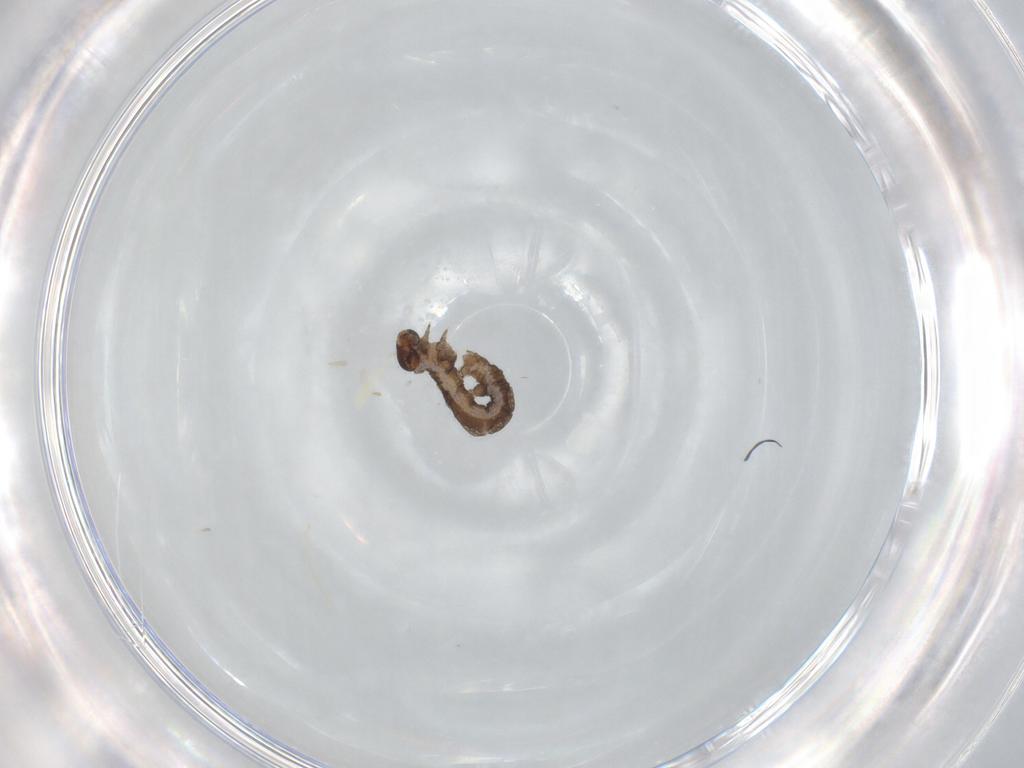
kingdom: Animalia
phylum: Arthropoda
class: Insecta
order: Lepidoptera
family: Geometridae
